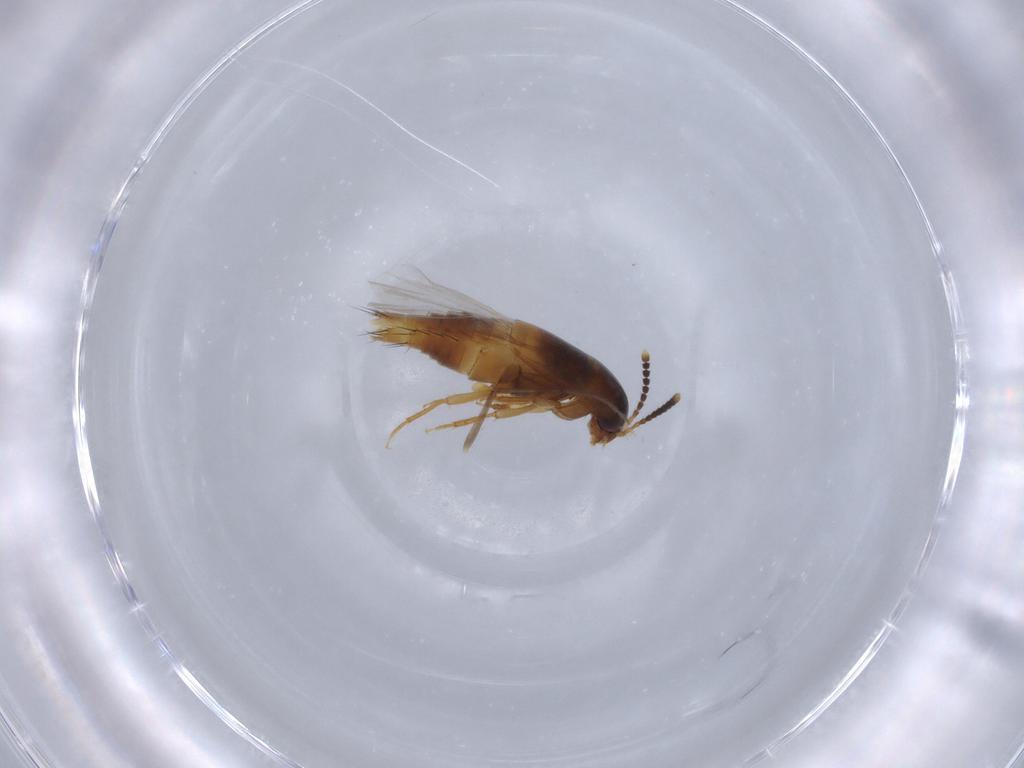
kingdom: Animalia
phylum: Arthropoda
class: Insecta
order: Coleoptera
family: Staphylinidae
